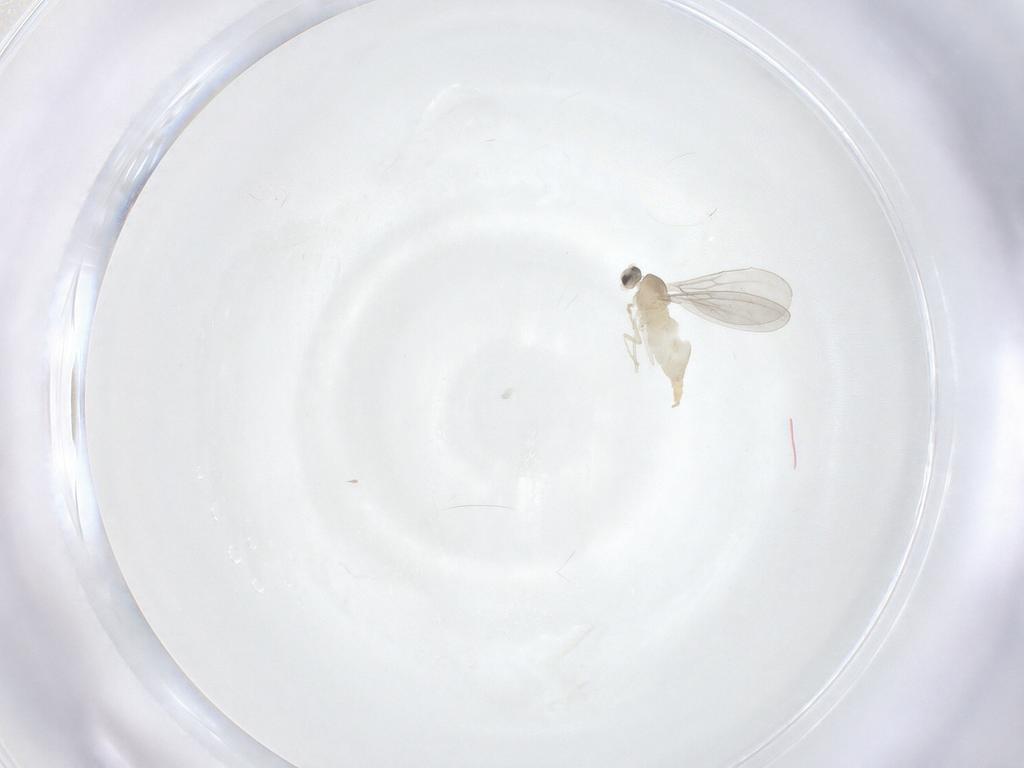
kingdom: Animalia
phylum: Arthropoda
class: Insecta
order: Diptera
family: Cecidomyiidae
